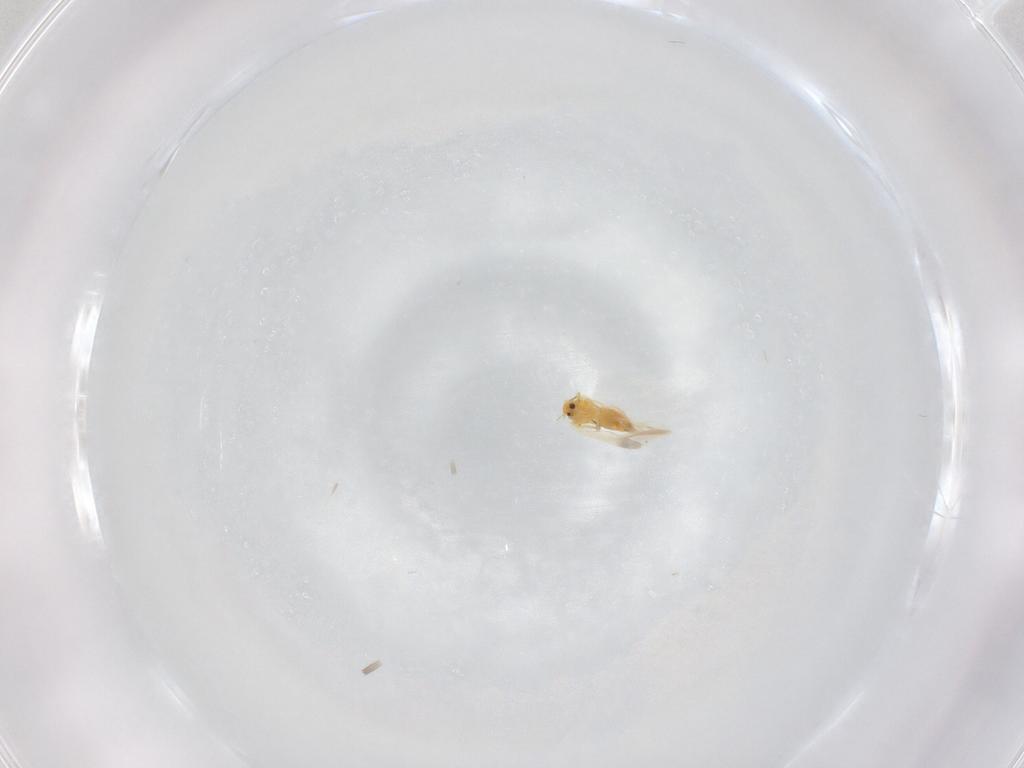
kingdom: Animalia
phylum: Arthropoda
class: Insecta
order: Hemiptera
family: Aleyrodidae
